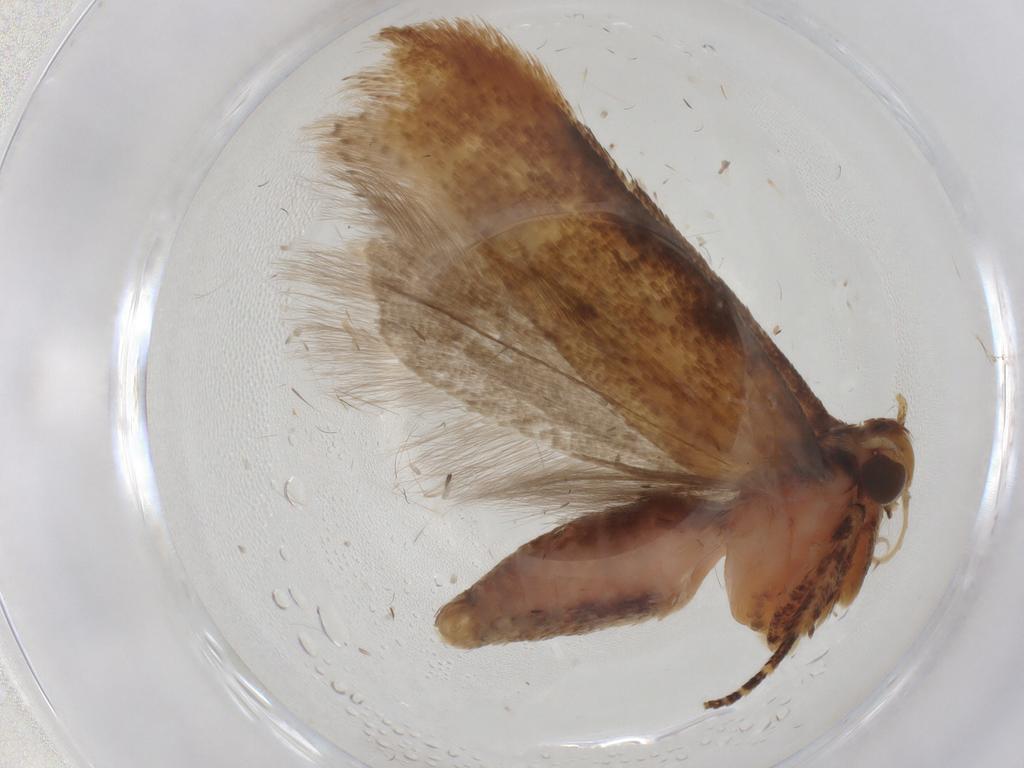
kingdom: Animalia
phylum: Arthropoda
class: Insecta
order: Lepidoptera
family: Gelechiidae
